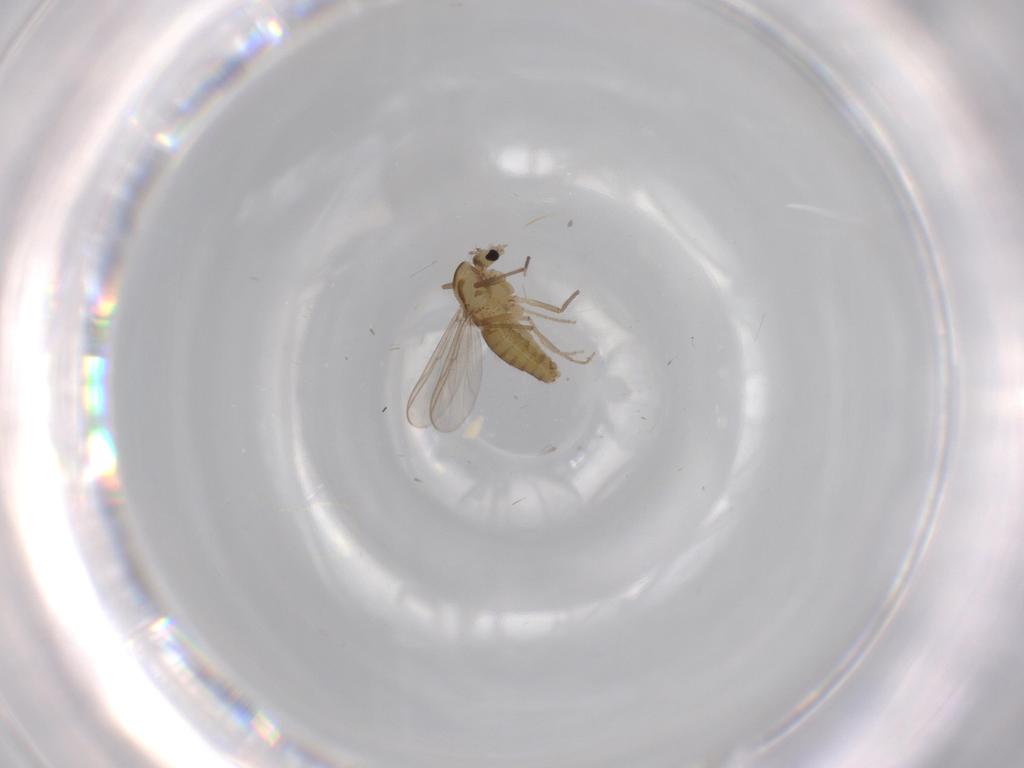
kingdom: Animalia
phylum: Arthropoda
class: Insecta
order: Diptera
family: Chironomidae
